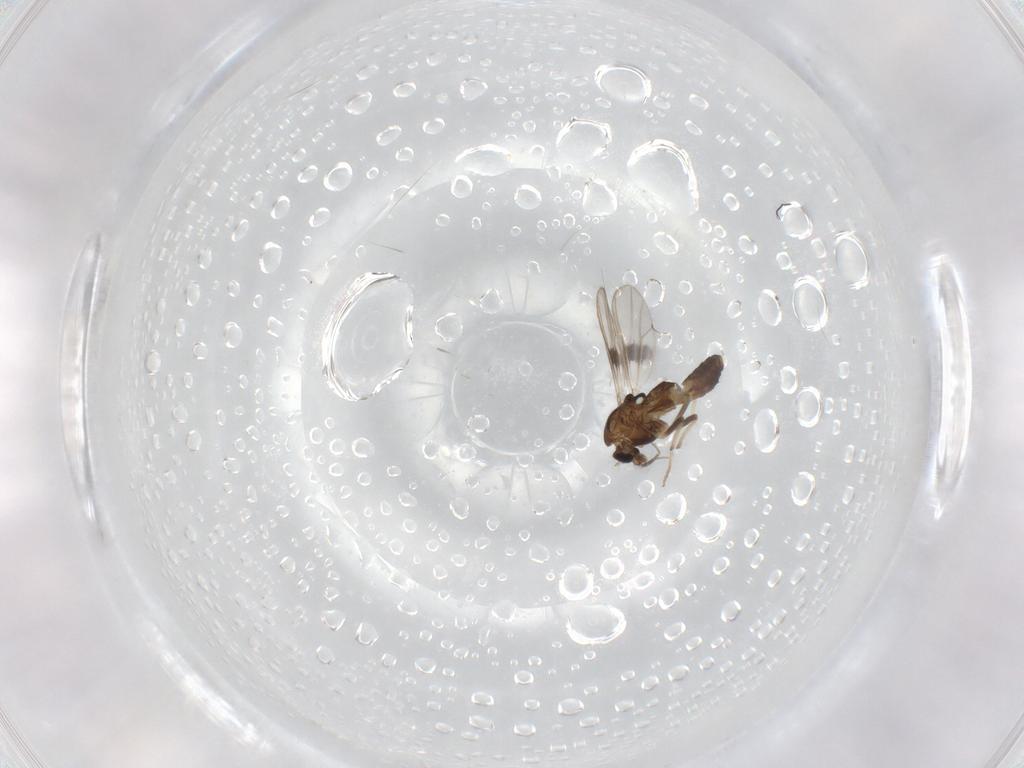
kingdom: Animalia
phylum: Arthropoda
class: Insecta
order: Diptera
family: Chironomidae
